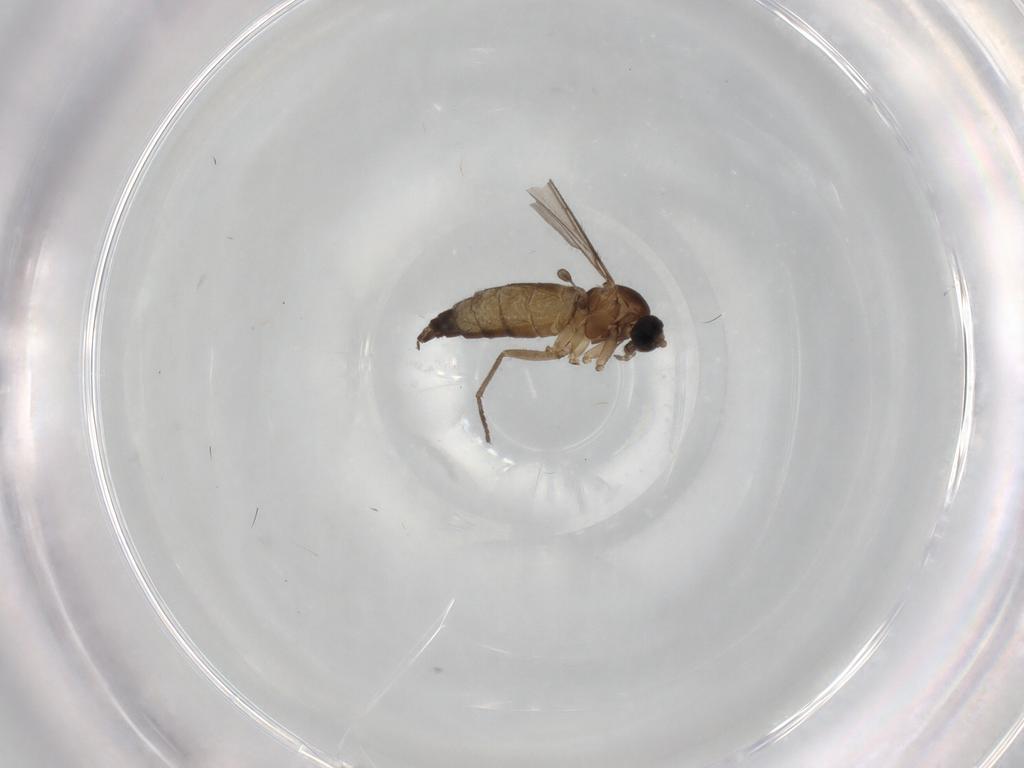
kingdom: Animalia
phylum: Arthropoda
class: Insecta
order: Diptera
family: Sciaridae
